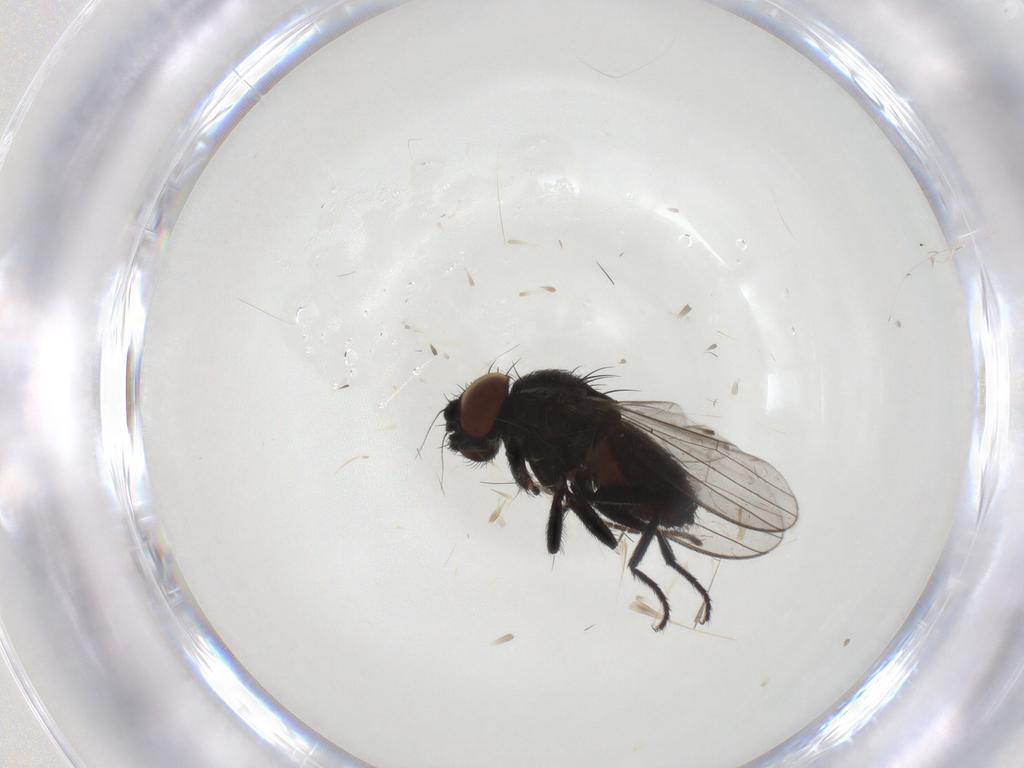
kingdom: Animalia
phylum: Arthropoda
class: Insecta
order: Diptera
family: Milichiidae
